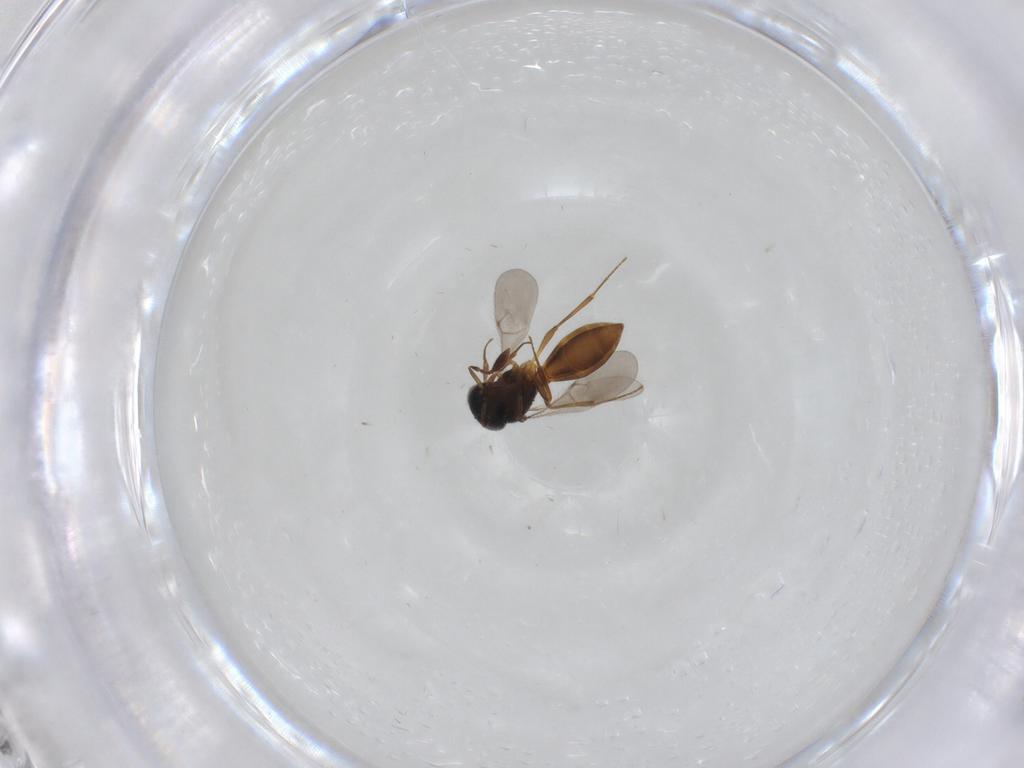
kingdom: Animalia
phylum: Arthropoda
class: Insecta
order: Hymenoptera
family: Scelionidae
